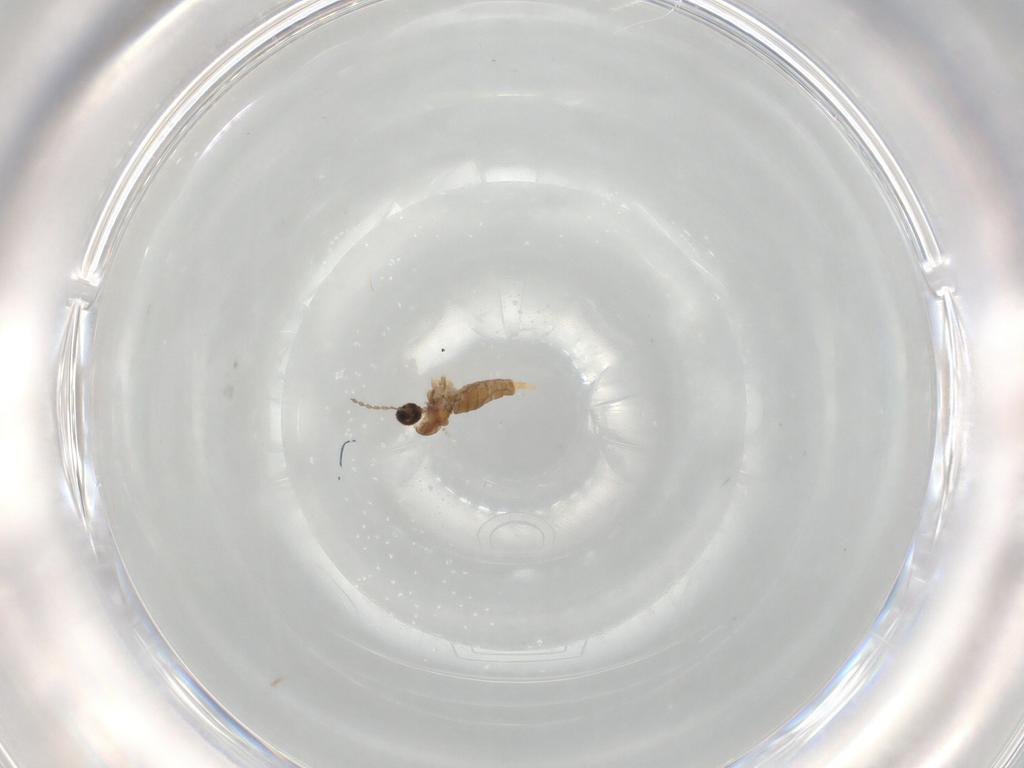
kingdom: Animalia
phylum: Arthropoda
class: Insecta
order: Diptera
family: Cecidomyiidae
